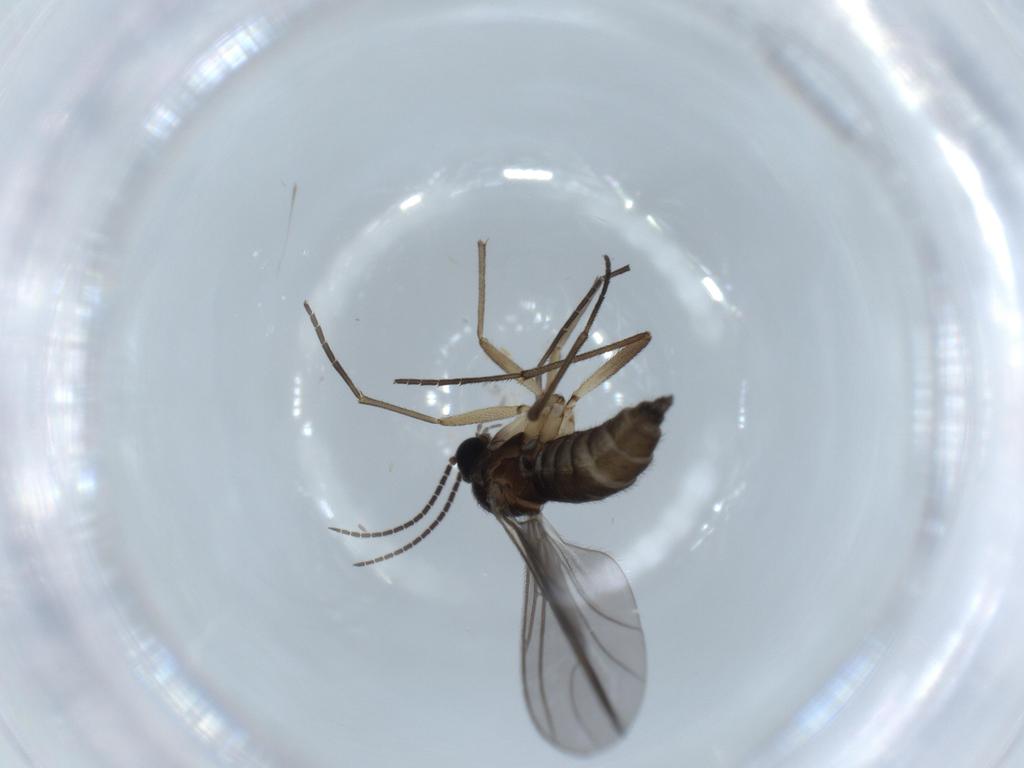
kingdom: Animalia
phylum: Arthropoda
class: Insecta
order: Diptera
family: Sciaridae
